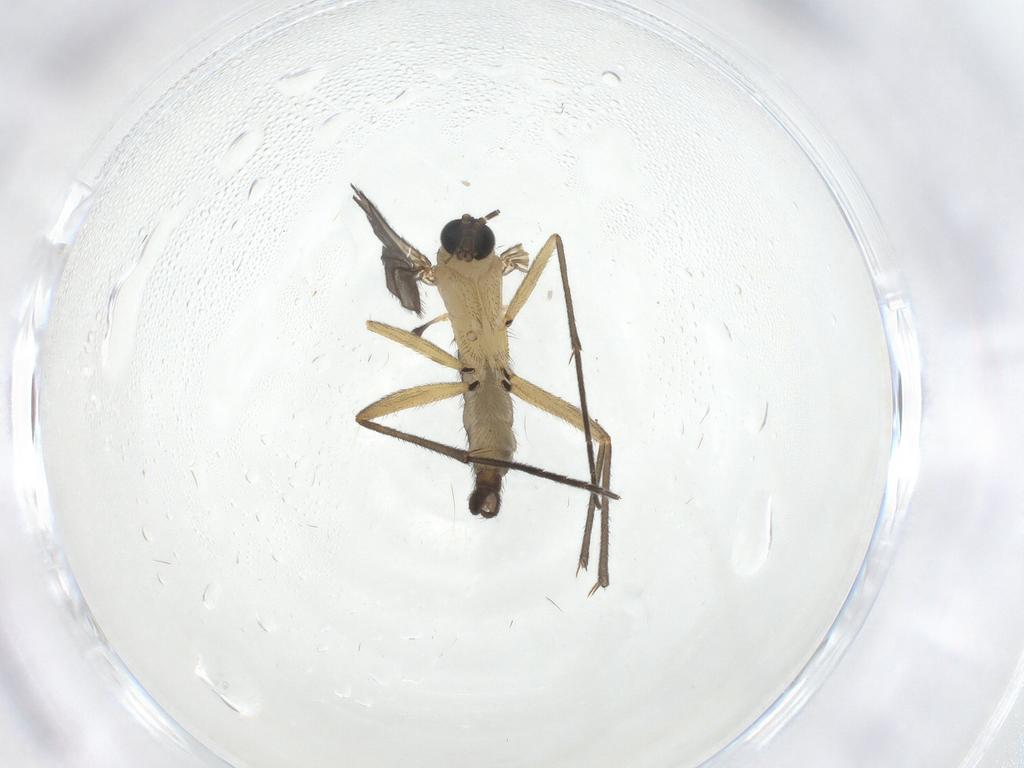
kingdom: Animalia
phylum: Arthropoda
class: Insecta
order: Diptera
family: Sciaridae
